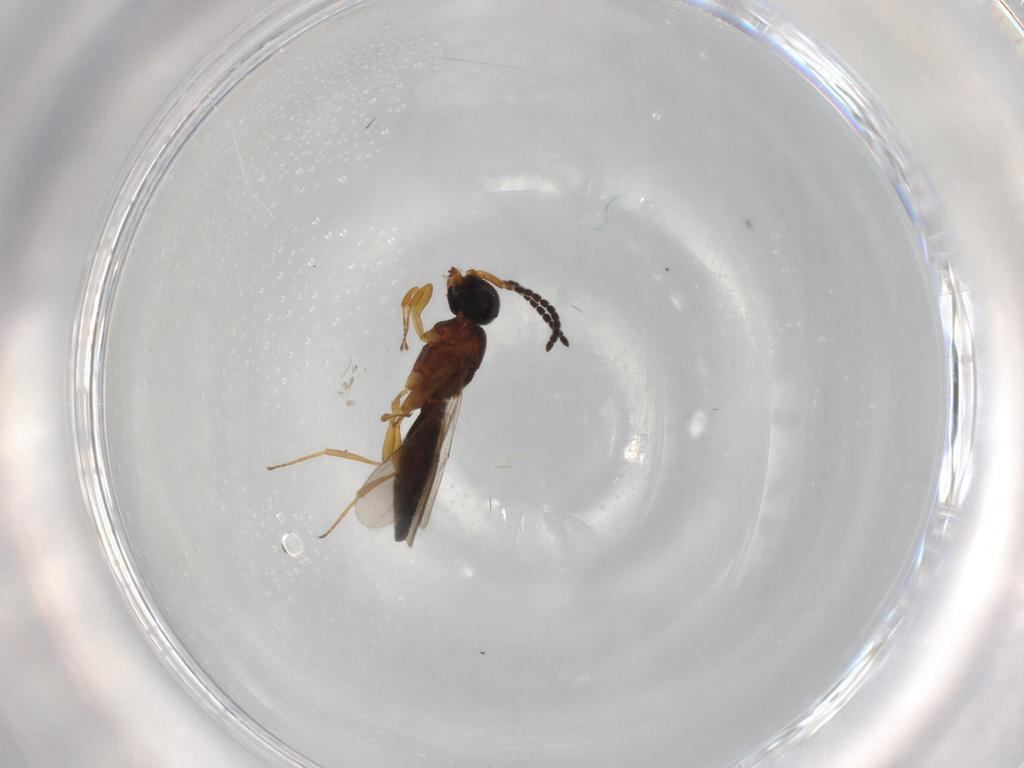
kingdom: Animalia
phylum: Arthropoda
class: Insecta
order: Hymenoptera
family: Scelionidae
